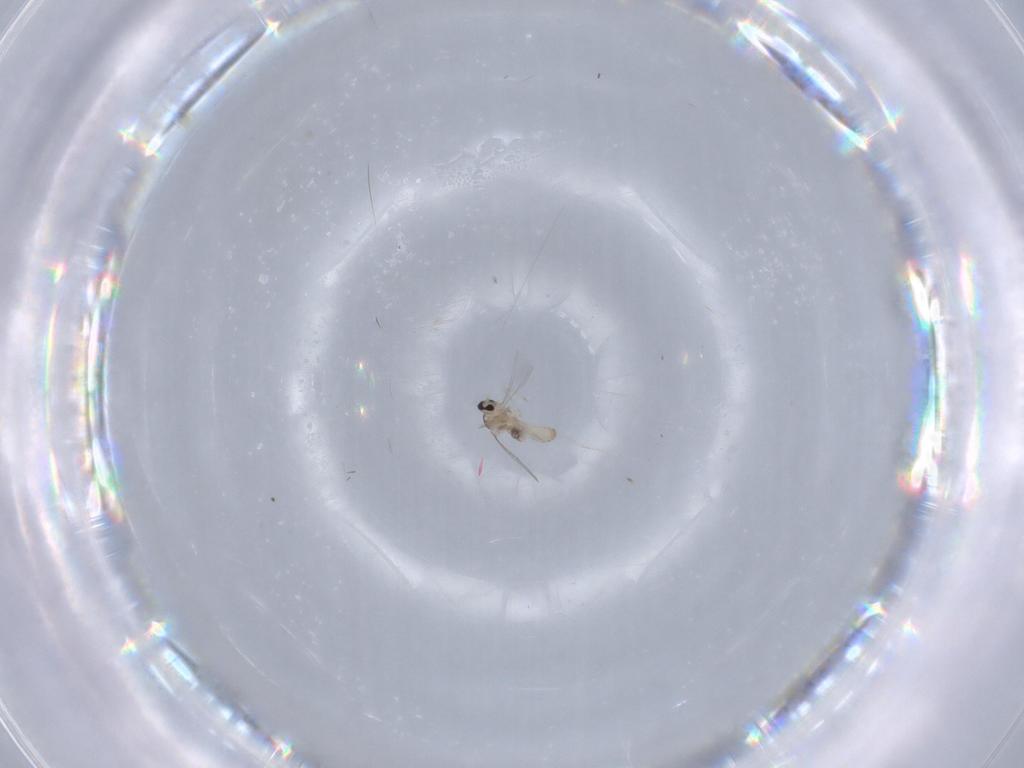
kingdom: Animalia
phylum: Arthropoda
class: Insecta
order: Diptera
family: Cecidomyiidae
